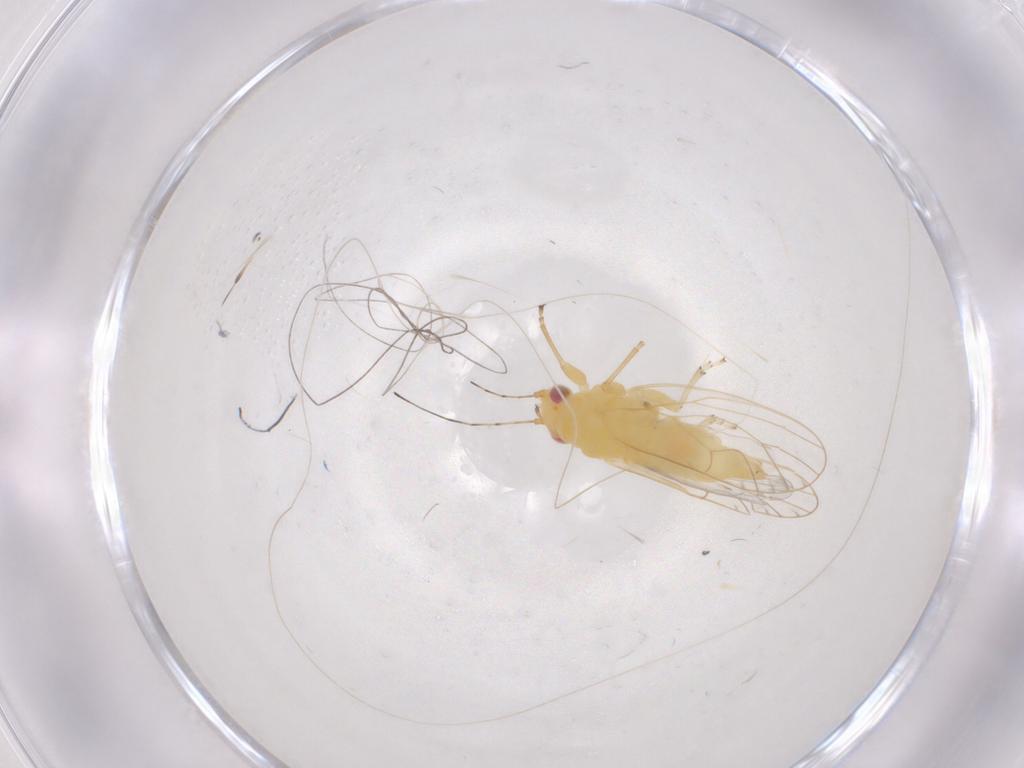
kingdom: Animalia
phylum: Arthropoda
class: Insecta
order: Hemiptera
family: Psyllidae
